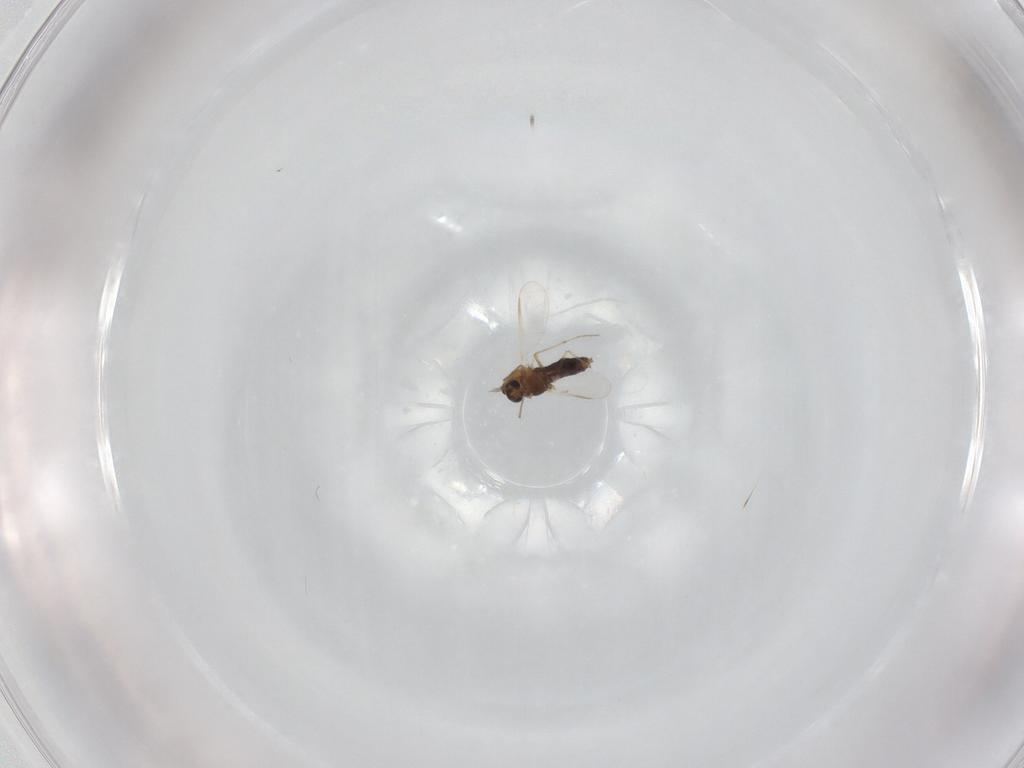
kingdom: Animalia
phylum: Arthropoda
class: Insecta
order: Diptera
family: Chironomidae
